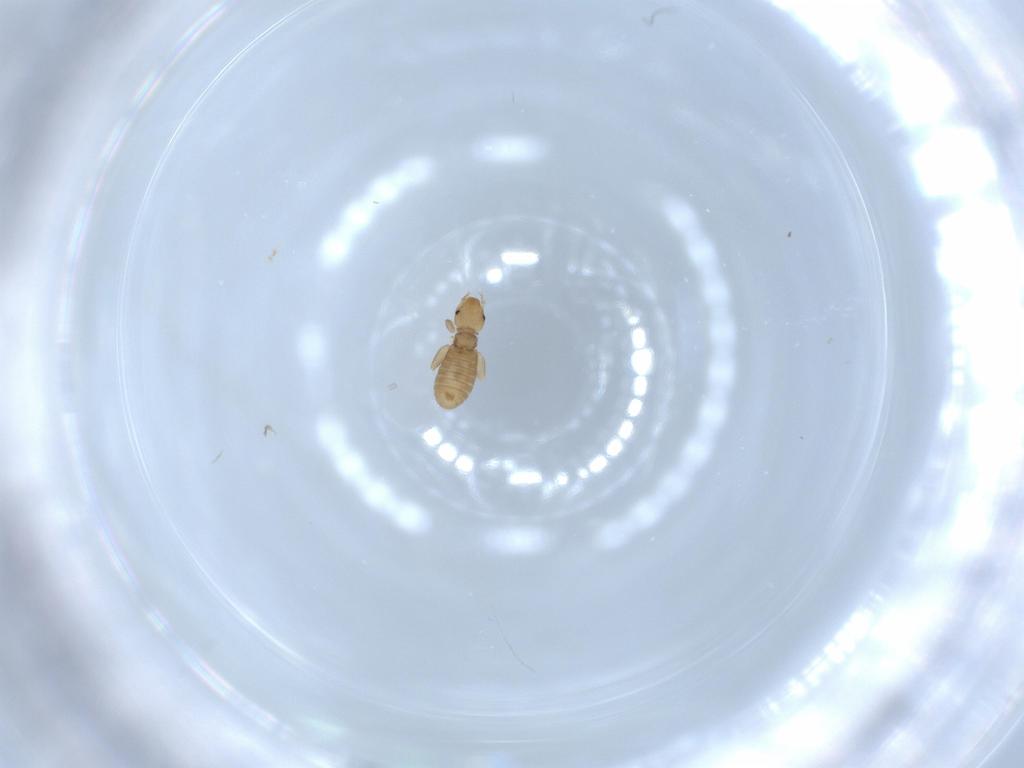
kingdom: Animalia
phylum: Arthropoda
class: Insecta
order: Psocodea
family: Liposcelididae
